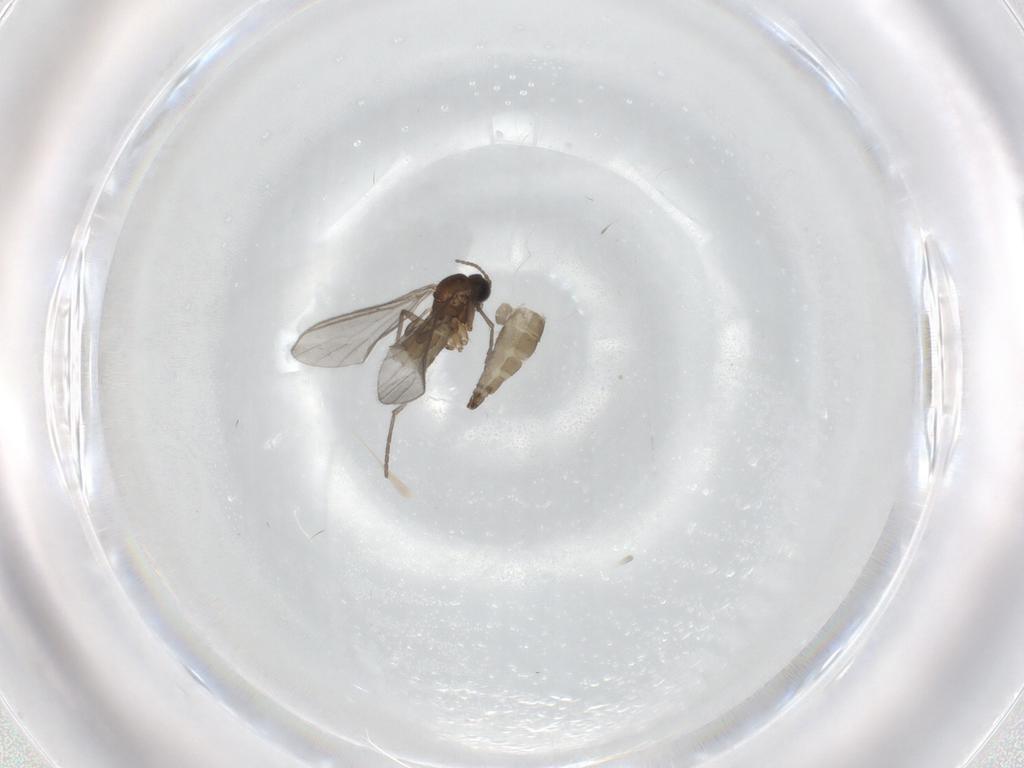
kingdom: Animalia
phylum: Arthropoda
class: Insecta
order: Diptera
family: Sciaridae
